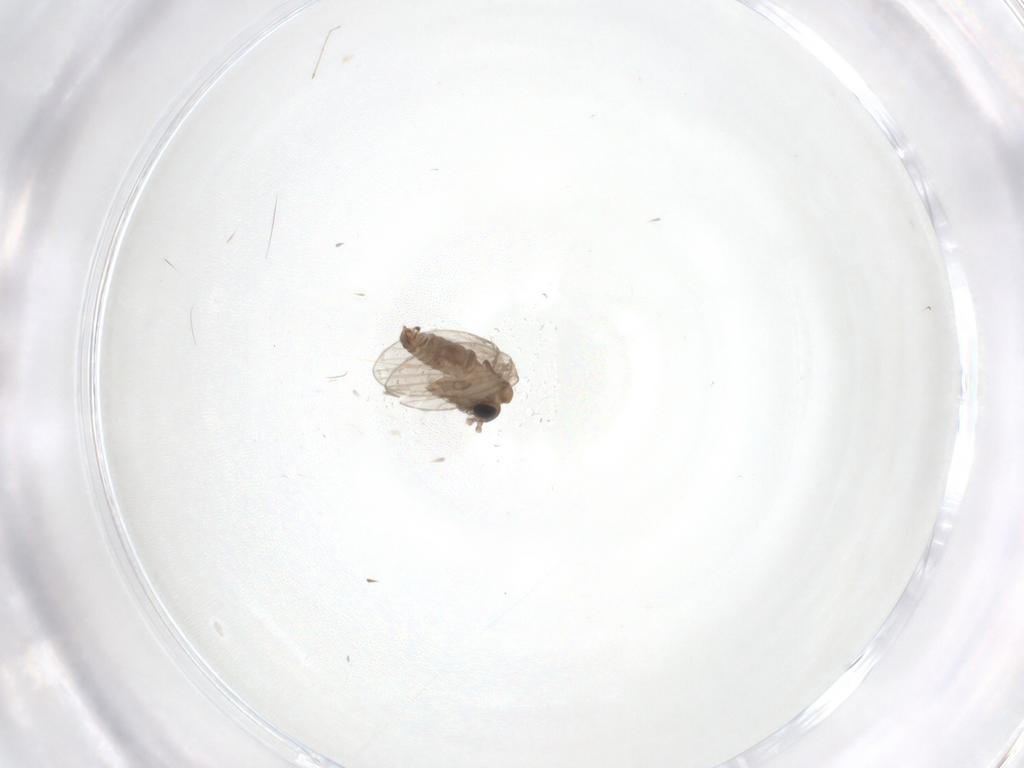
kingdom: Animalia
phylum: Arthropoda
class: Insecta
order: Diptera
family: Psychodidae
